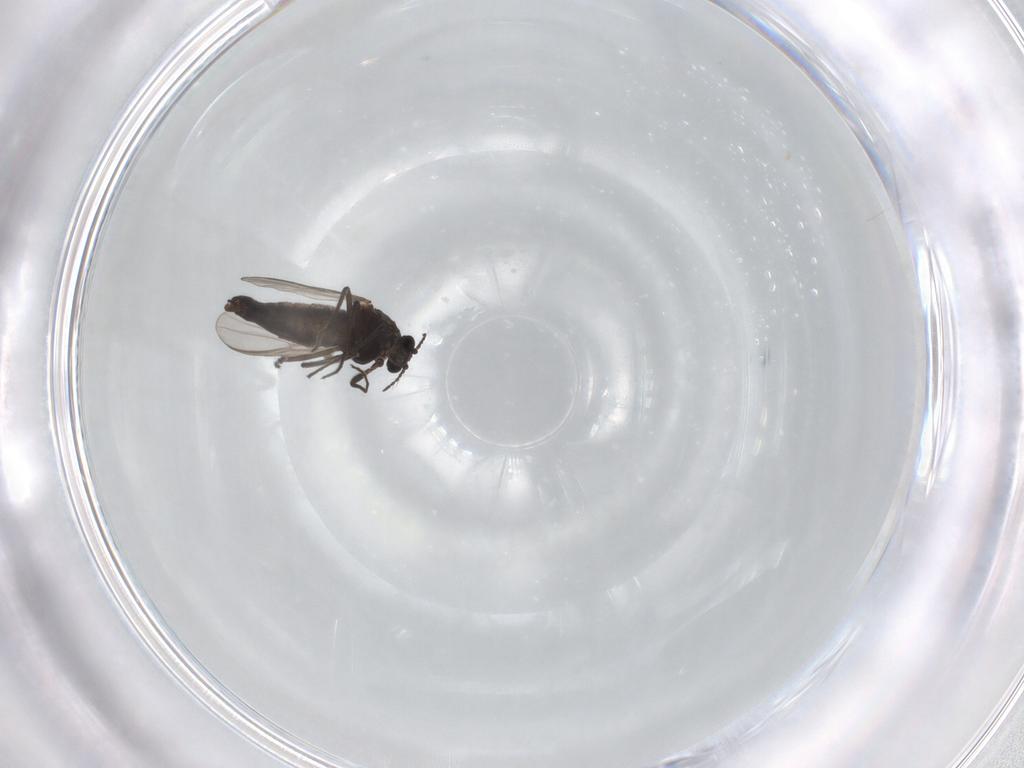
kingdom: Animalia
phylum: Arthropoda
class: Insecta
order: Diptera
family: Chironomidae
